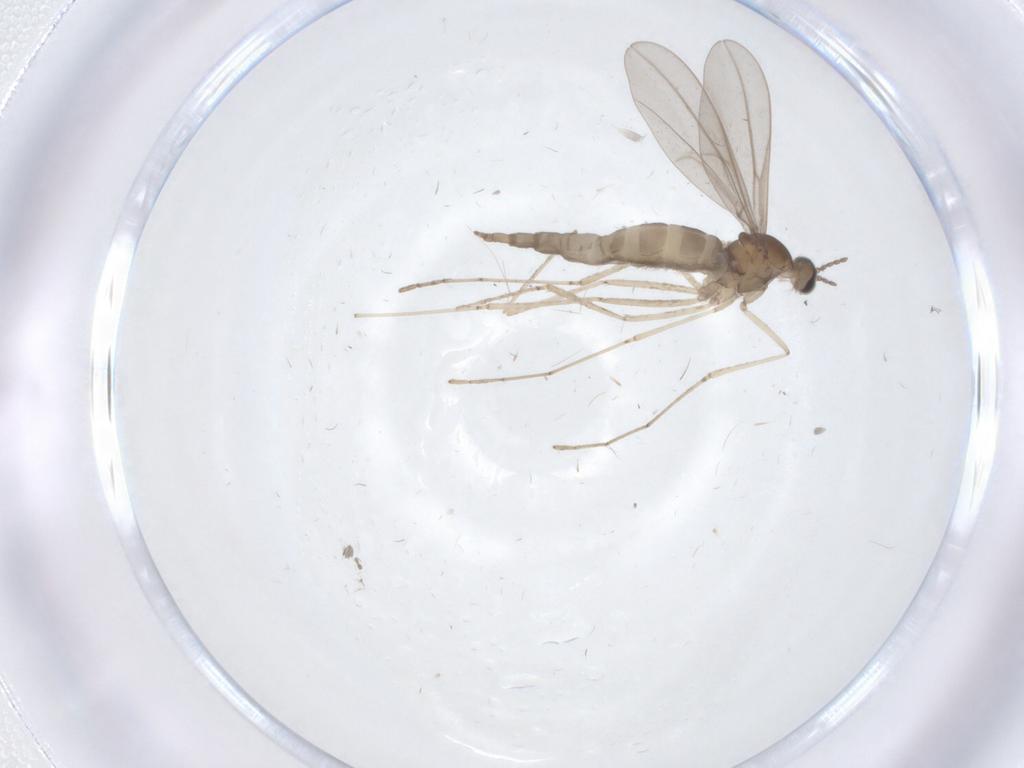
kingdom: Animalia
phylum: Arthropoda
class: Insecta
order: Diptera
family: Cecidomyiidae
